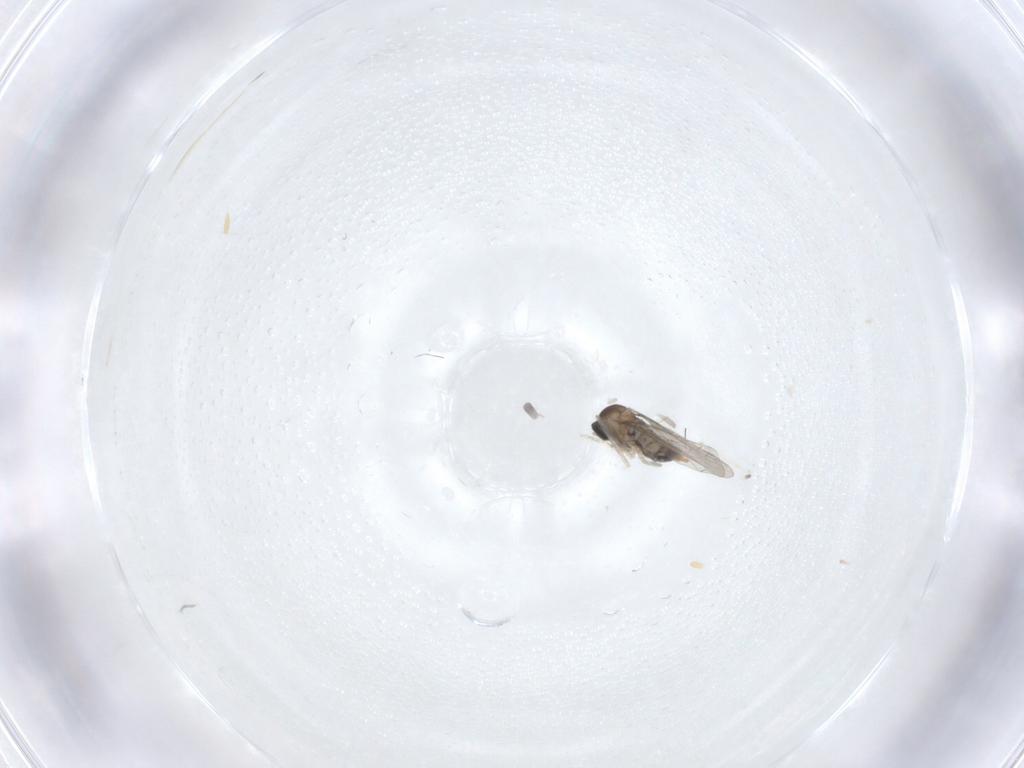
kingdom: Animalia
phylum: Arthropoda
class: Insecta
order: Diptera
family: Cecidomyiidae
